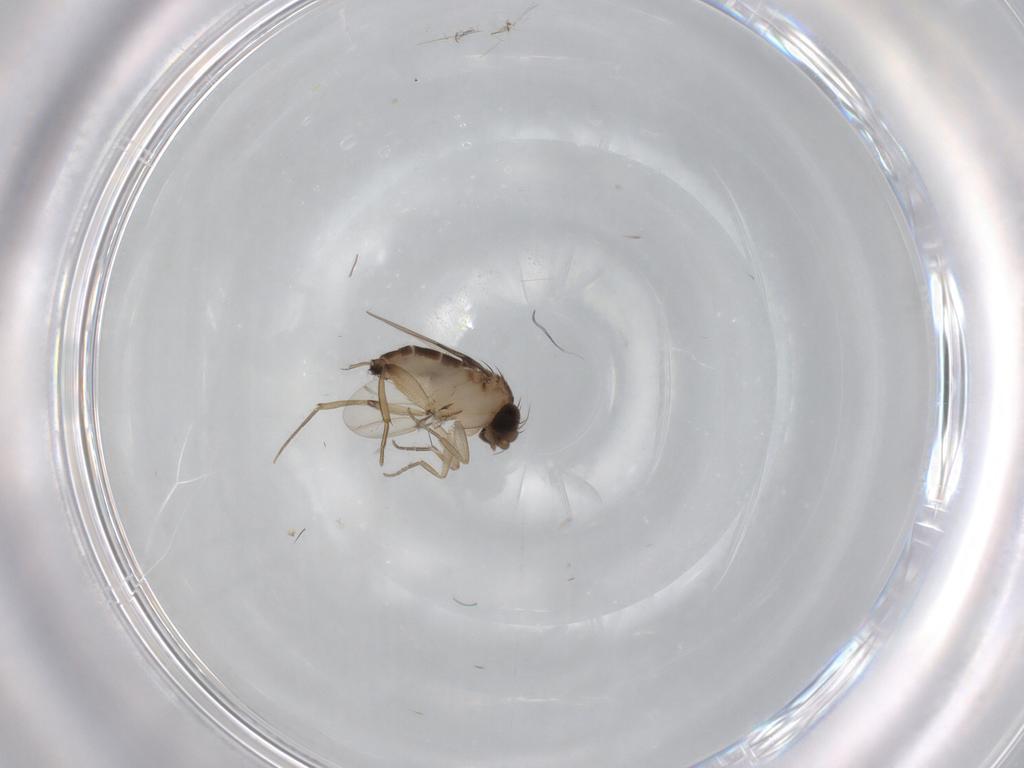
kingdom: Animalia
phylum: Arthropoda
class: Insecta
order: Diptera
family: Phoridae
